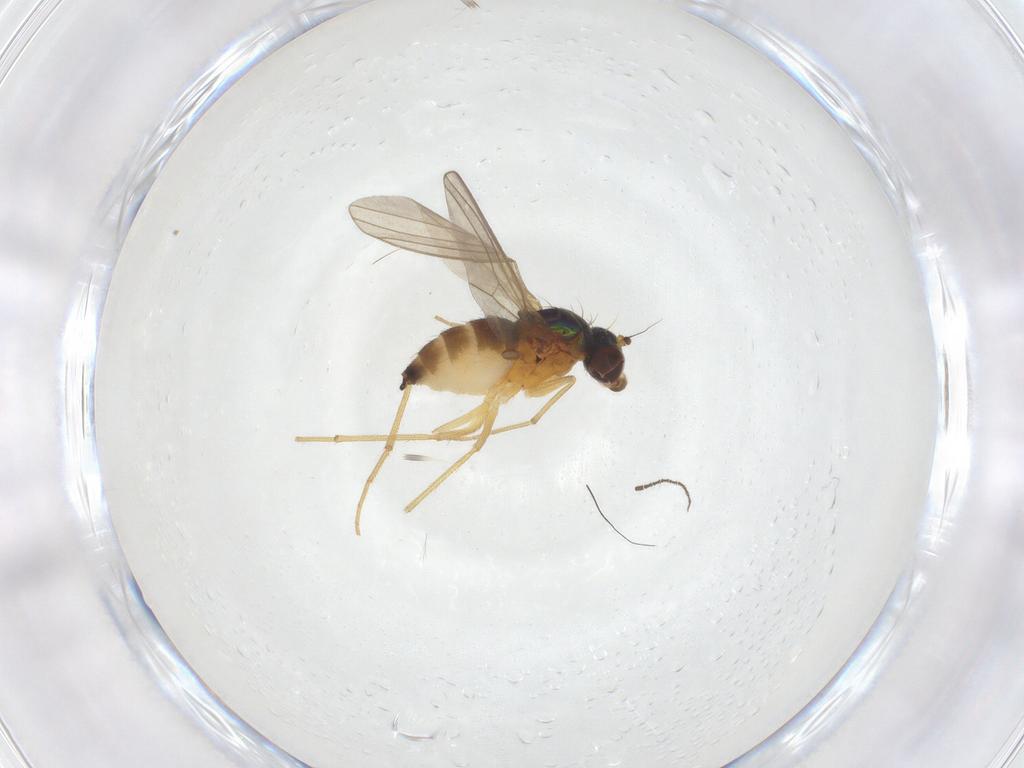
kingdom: Animalia
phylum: Arthropoda
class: Insecta
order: Diptera
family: Dolichopodidae
